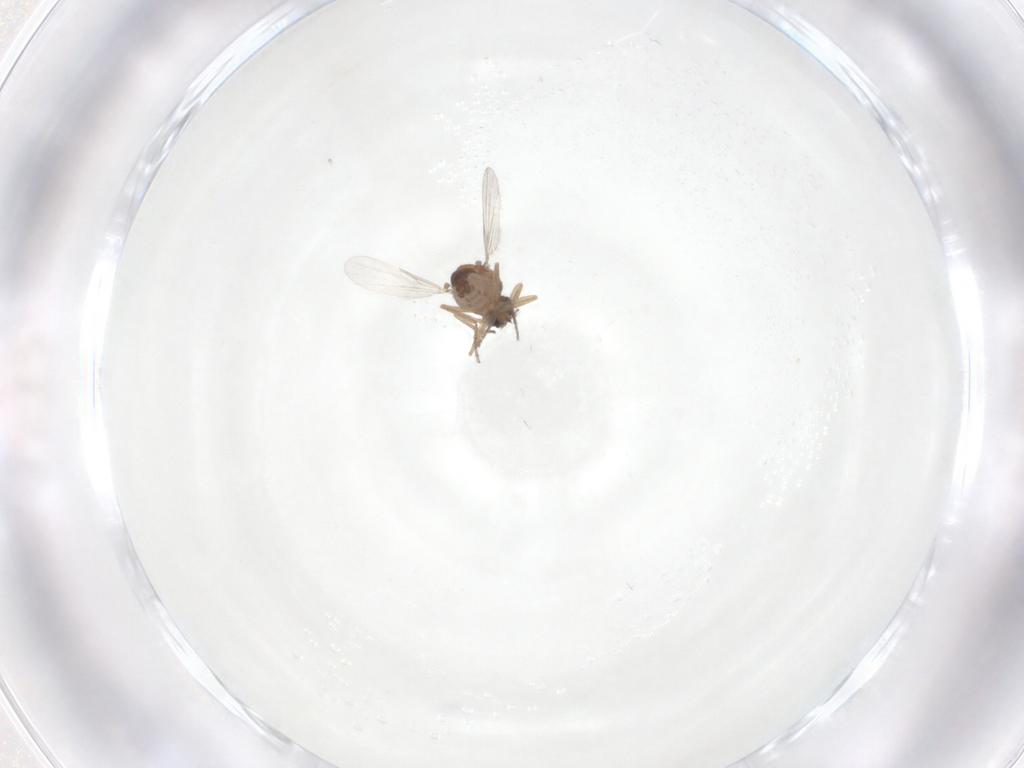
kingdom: Animalia
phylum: Arthropoda
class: Insecta
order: Diptera
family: Ceratopogonidae
